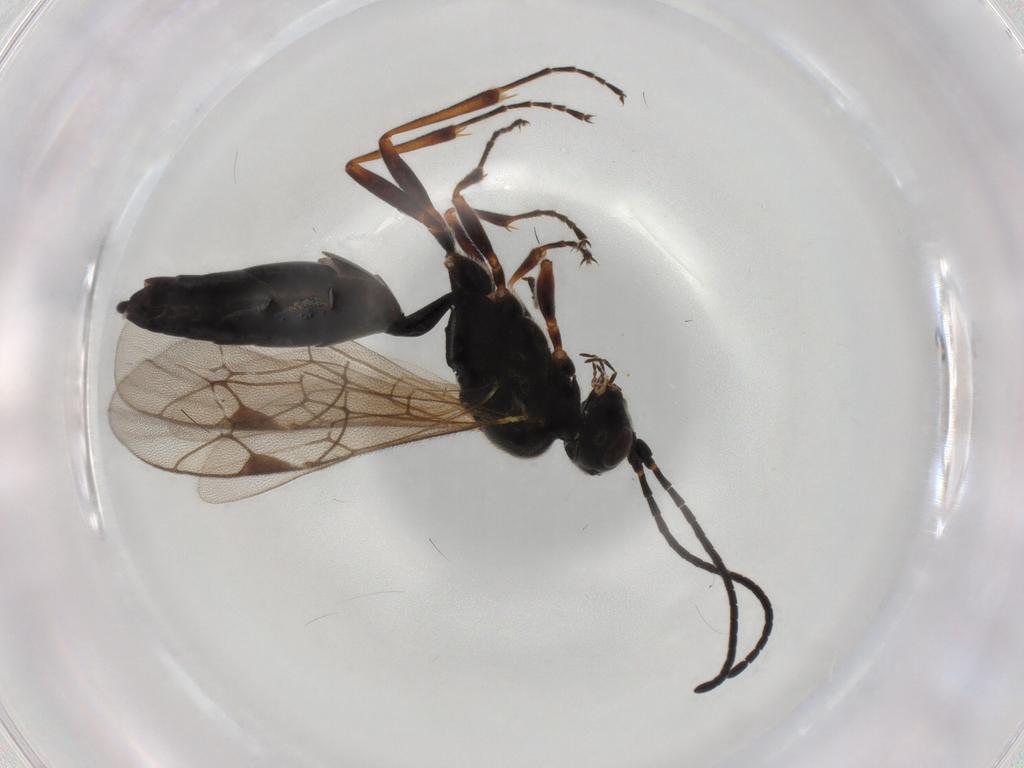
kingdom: Animalia
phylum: Arthropoda
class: Insecta
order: Hymenoptera
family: Ichneumonidae
